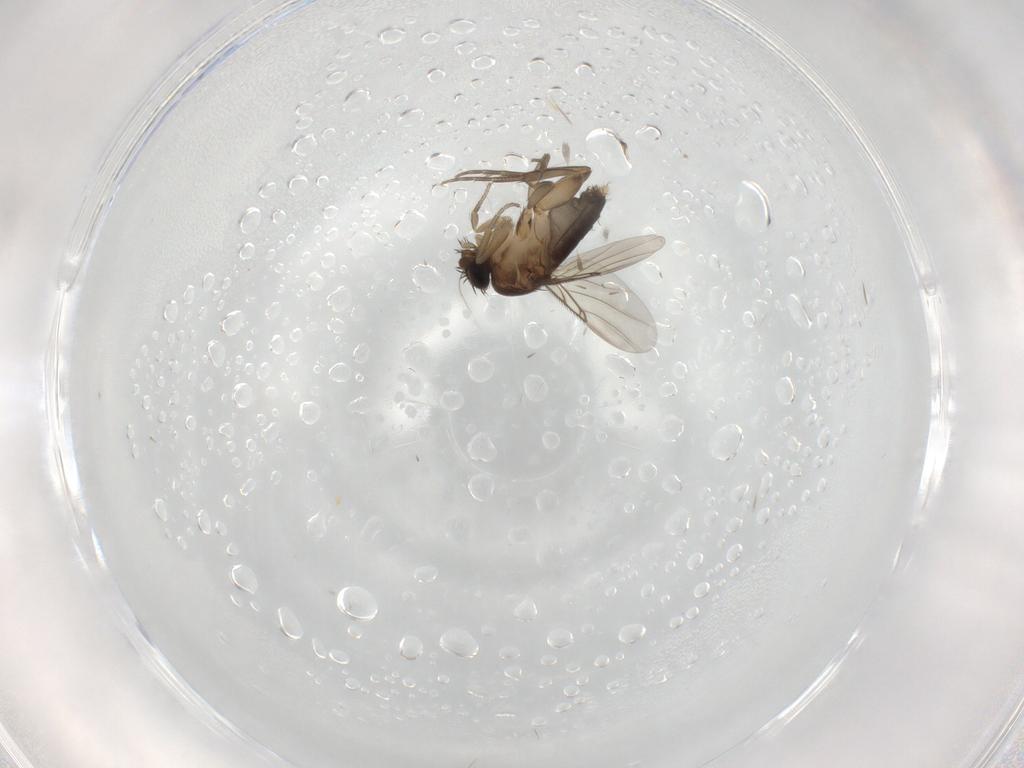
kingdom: Animalia
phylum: Arthropoda
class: Insecta
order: Diptera
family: Phoridae
